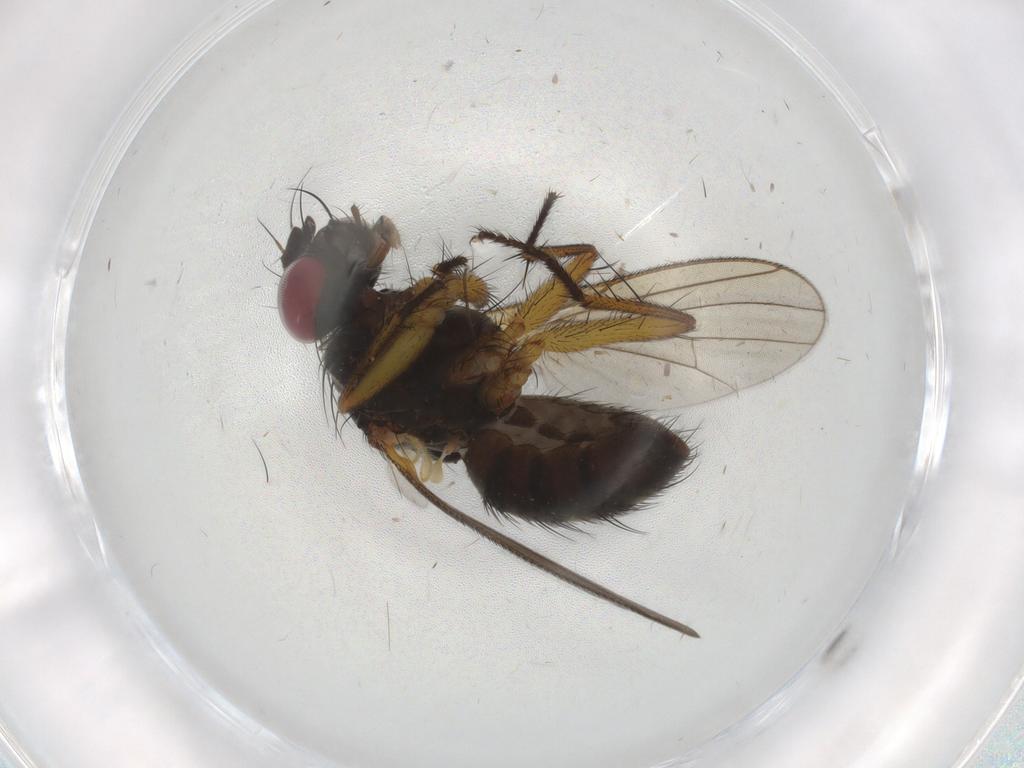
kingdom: Animalia
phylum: Arthropoda
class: Insecta
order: Diptera
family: Muscidae
